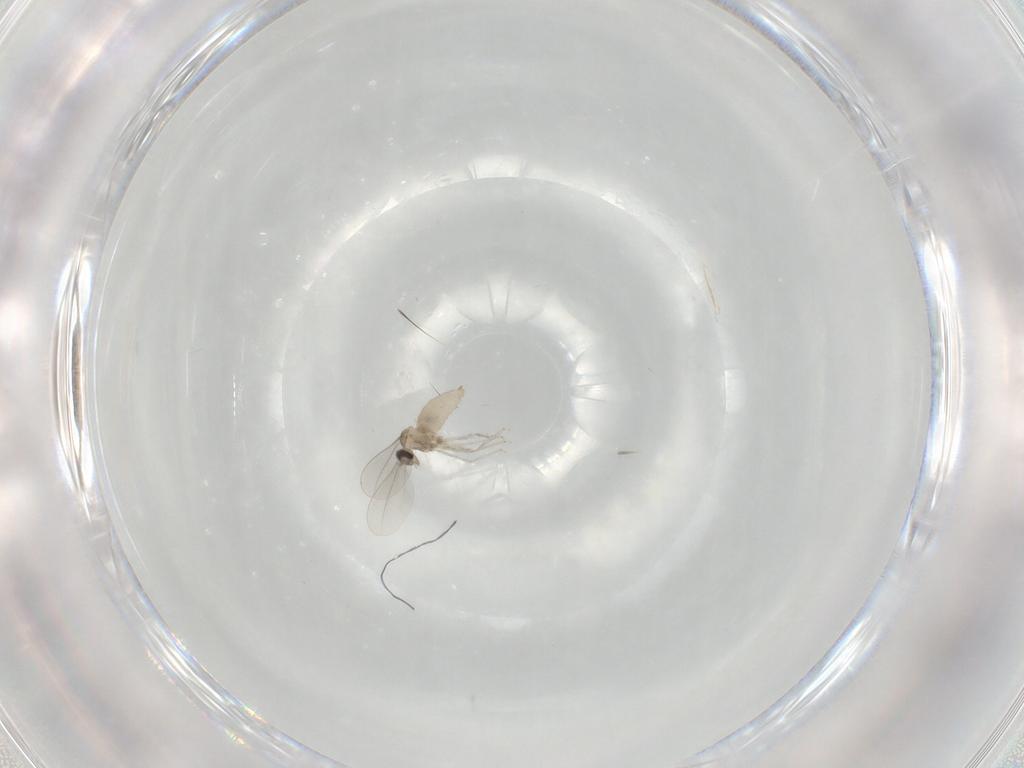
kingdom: Animalia
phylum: Arthropoda
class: Insecta
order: Diptera
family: Cecidomyiidae
